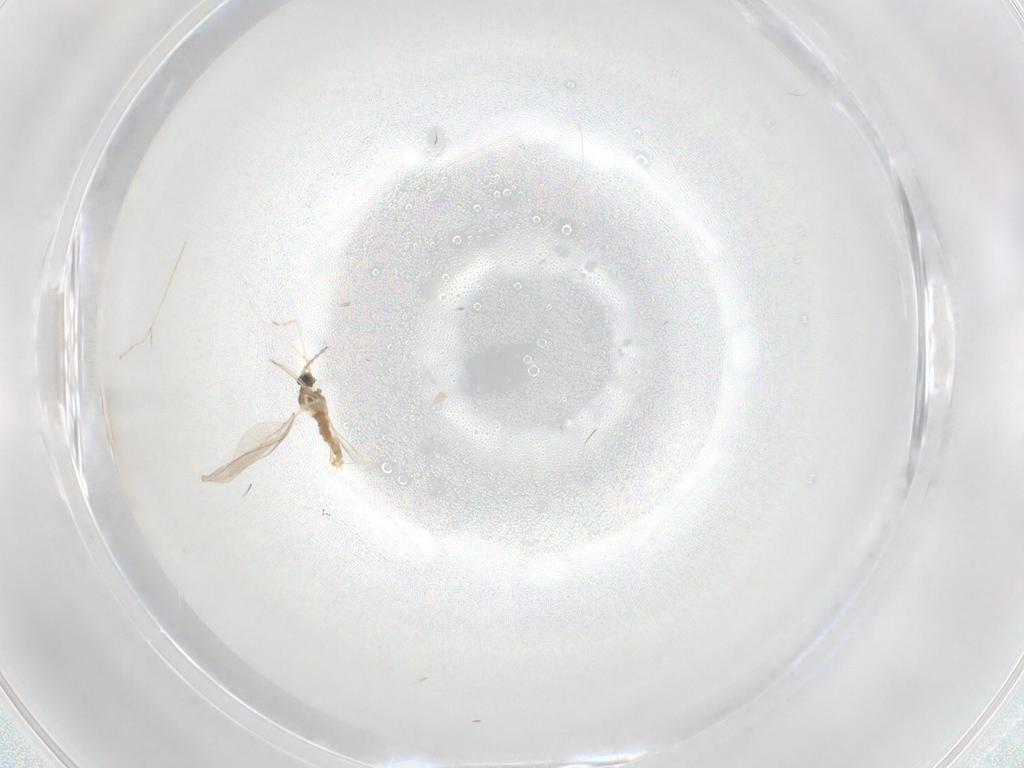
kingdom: Animalia
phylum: Arthropoda
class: Insecta
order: Diptera
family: Cecidomyiidae
